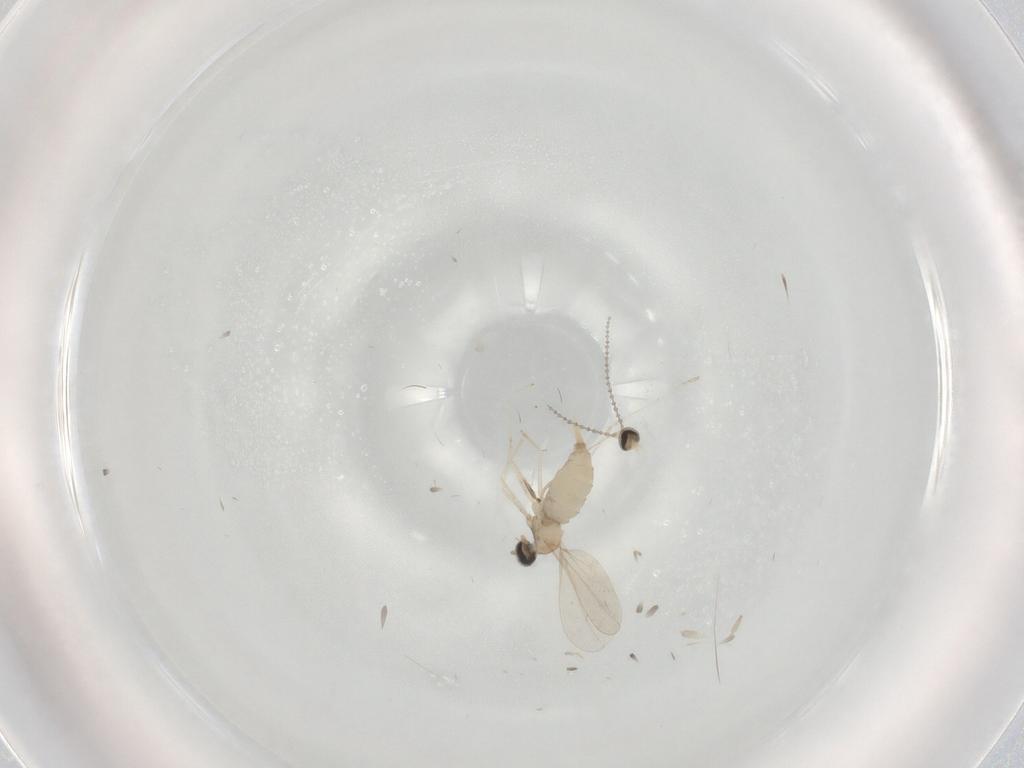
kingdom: Animalia
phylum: Arthropoda
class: Insecta
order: Diptera
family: Cecidomyiidae
